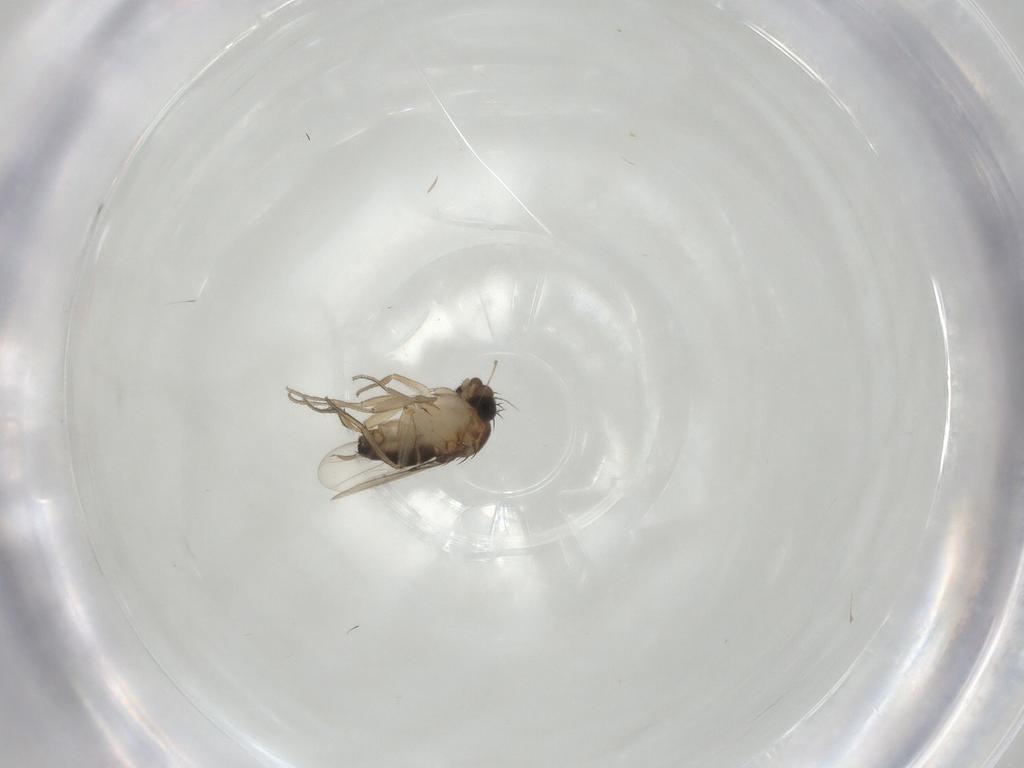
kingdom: Animalia
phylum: Arthropoda
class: Insecta
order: Diptera
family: Cecidomyiidae
